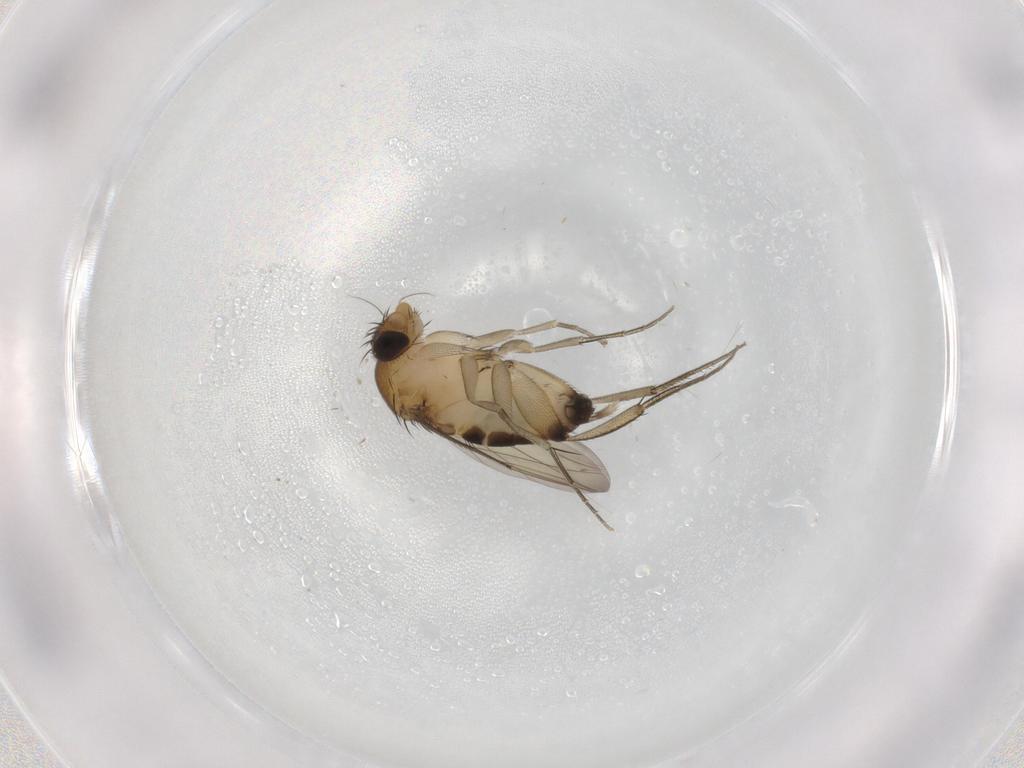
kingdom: Animalia
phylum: Arthropoda
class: Insecta
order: Diptera
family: Phoridae
